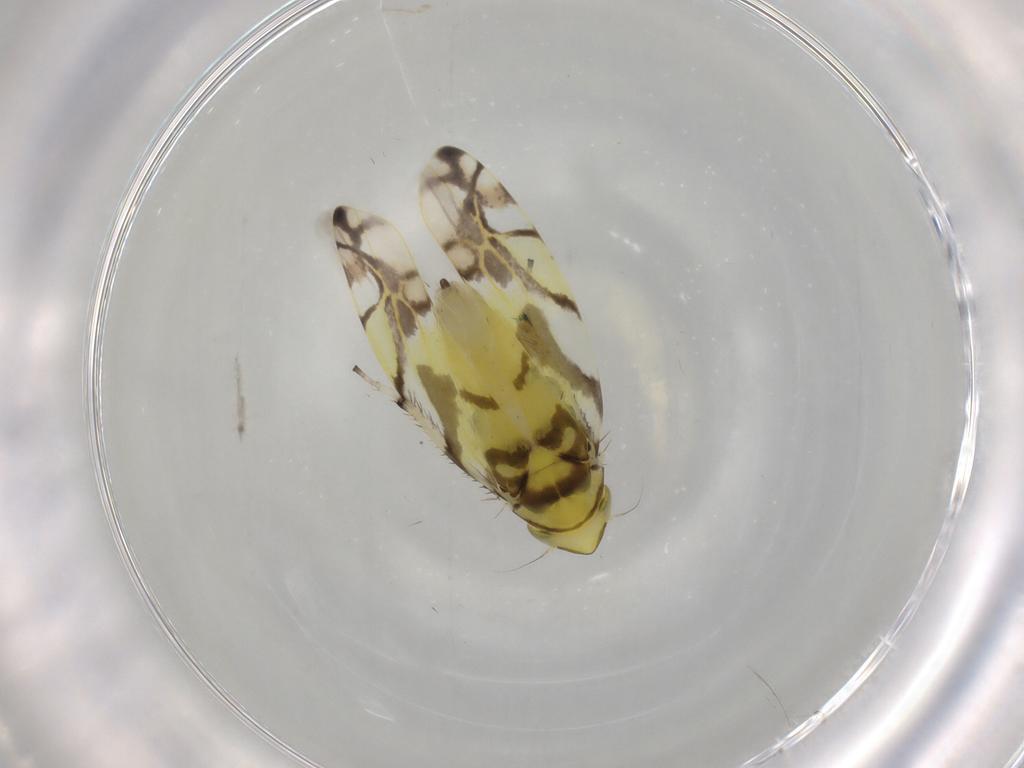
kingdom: Animalia
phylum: Arthropoda
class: Insecta
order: Hemiptera
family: Cicadellidae
